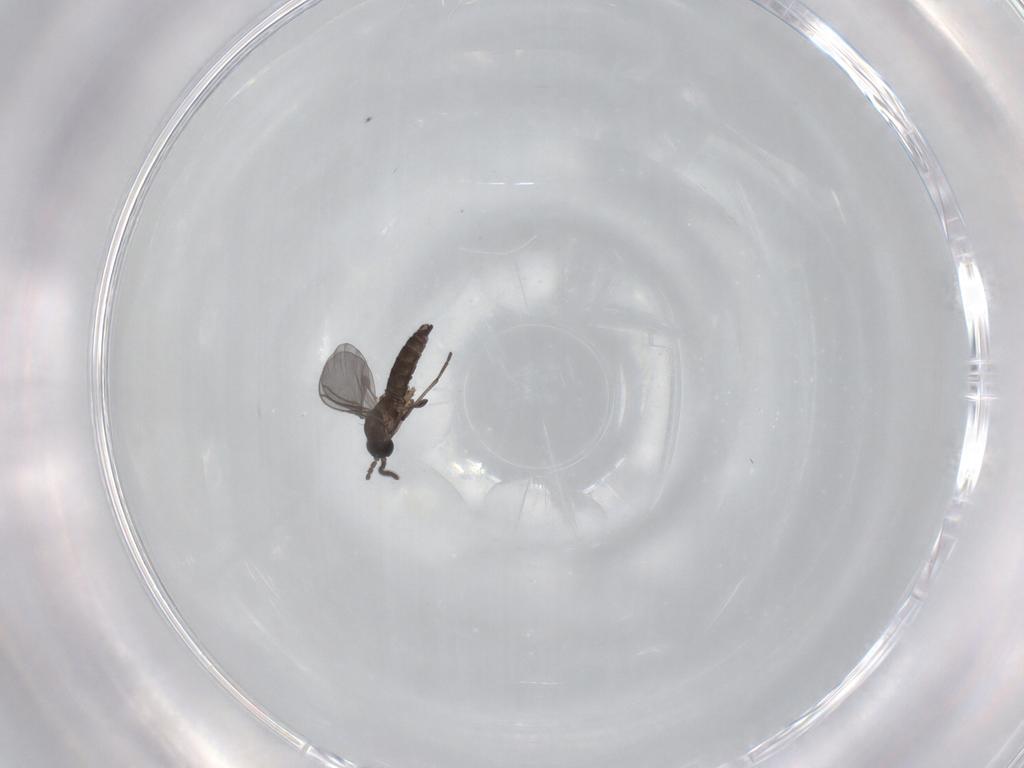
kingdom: Animalia
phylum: Arthropoda
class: Insecta
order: Diptera
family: Sciaridae
